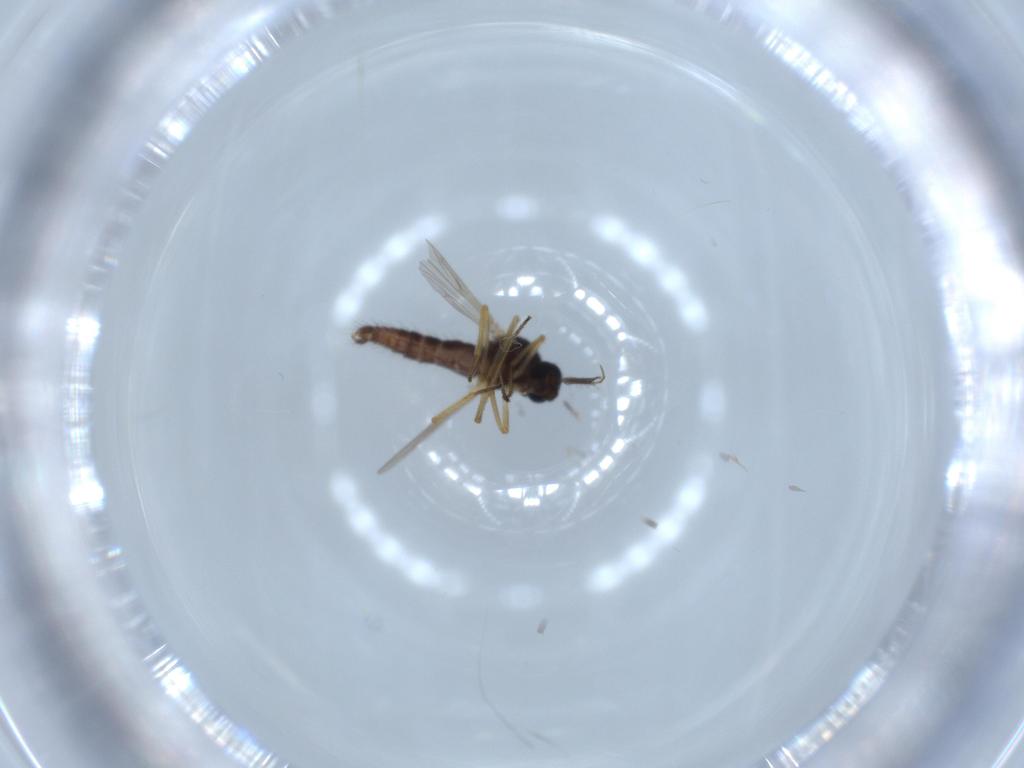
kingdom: Animalia
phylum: Arthropoda
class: Insecta
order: Diptera
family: Ceratopogonidae
